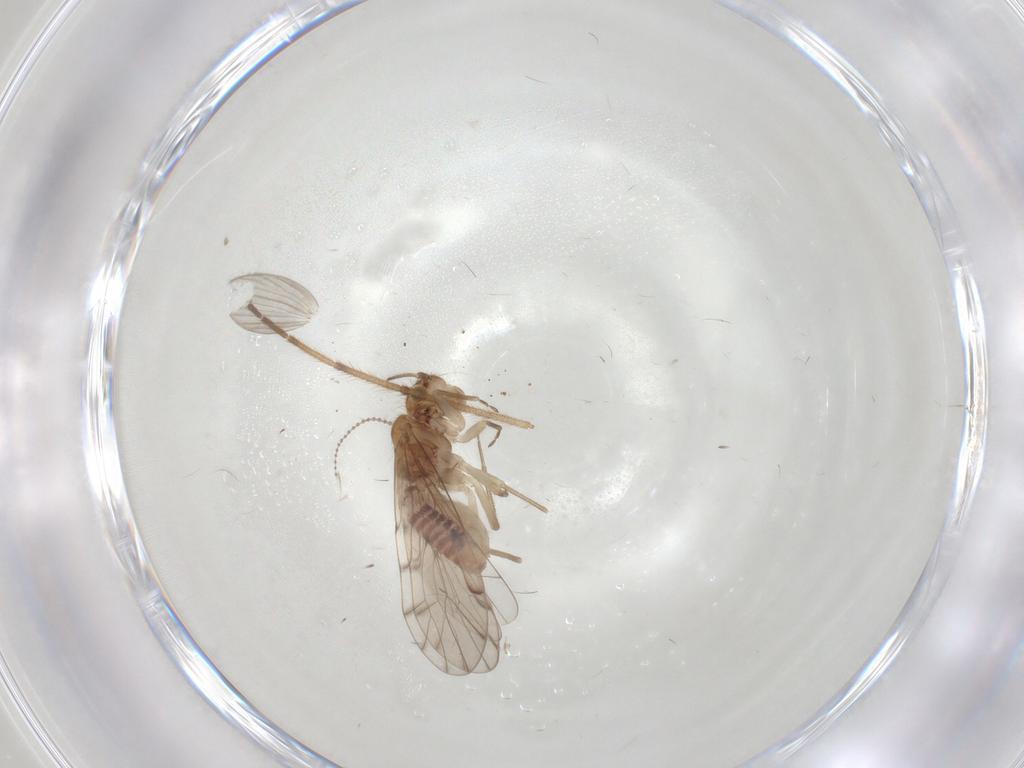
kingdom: Animalia
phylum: Arthropoda
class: Insecta
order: Diptera
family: Psychodidae
